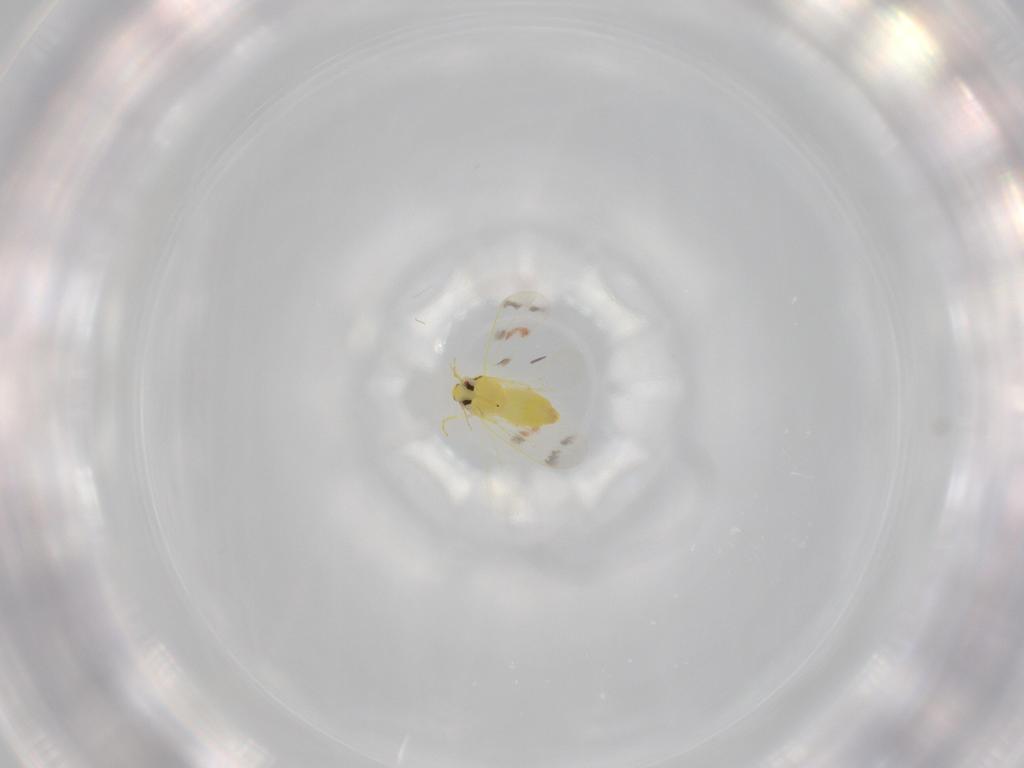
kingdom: Animalia
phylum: Arthropoda
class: Insecta
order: Hemiptera
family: Aleyrodidae
